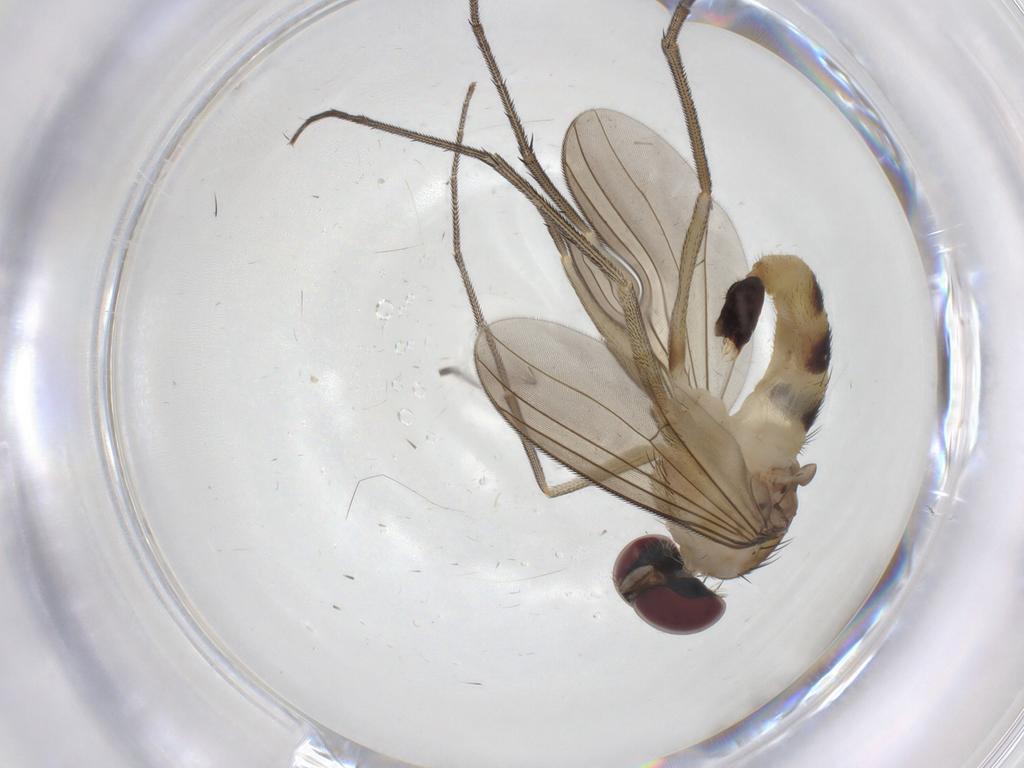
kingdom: Animalia
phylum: Arthropoda
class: Insecta
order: Diptera
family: Dolichopodidae
